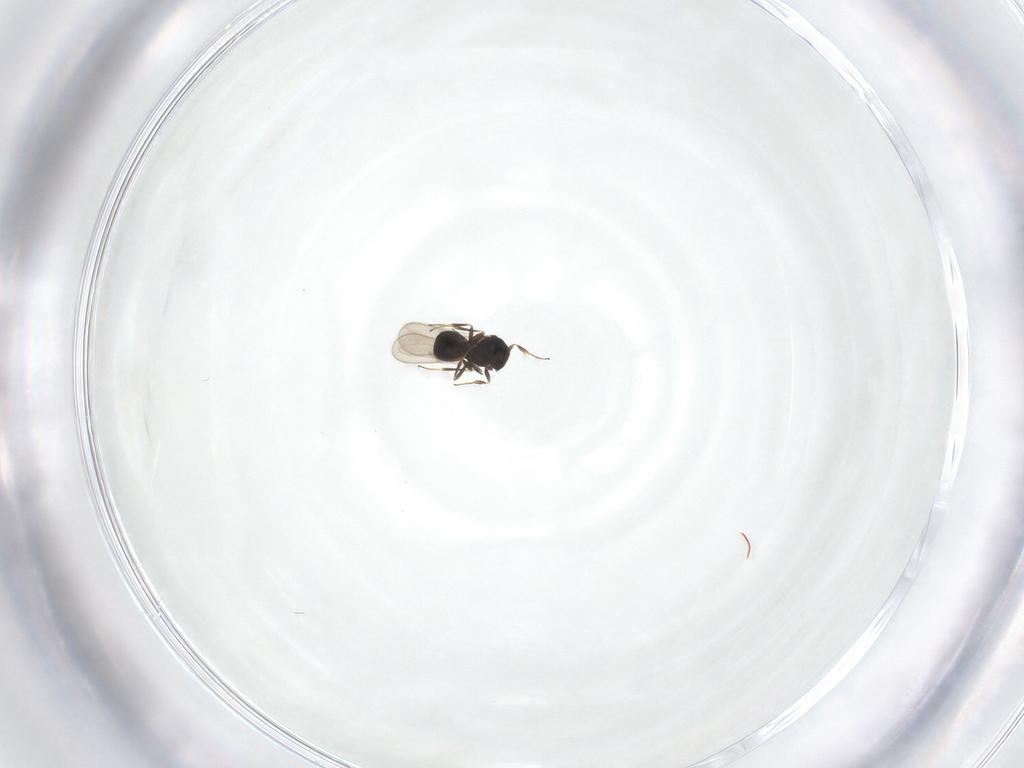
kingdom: Animalia
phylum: Arthropoda
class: Insecta
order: Hymenoptera
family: Scelionidae
